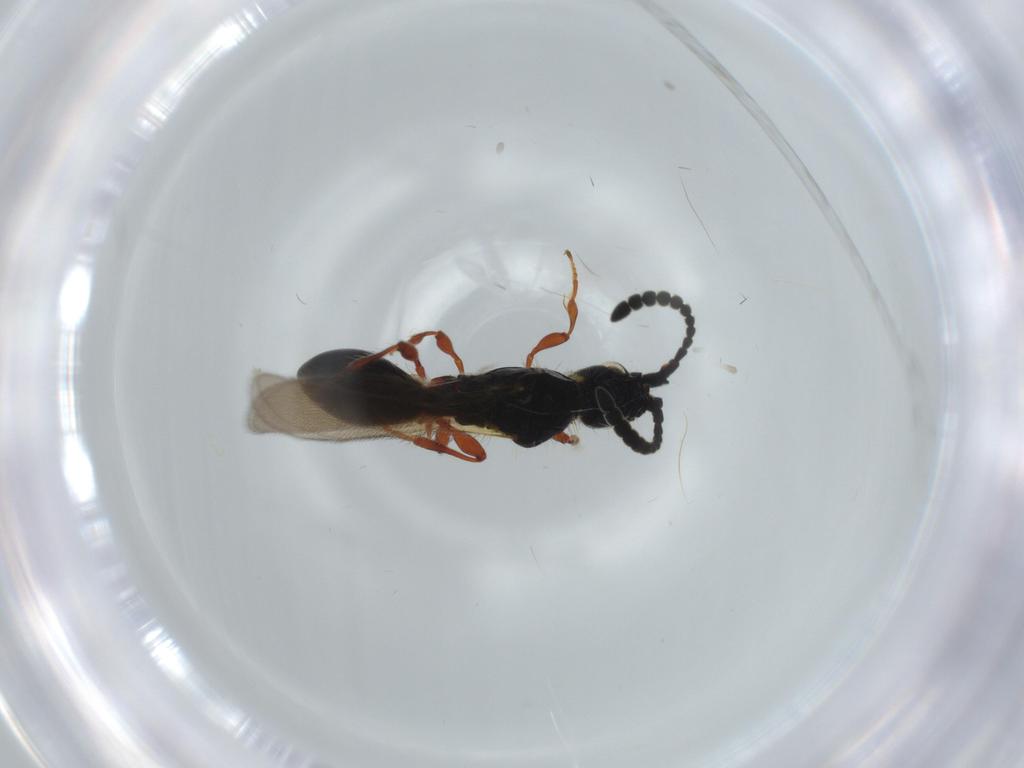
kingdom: Animalia
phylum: Arthropoda
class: Insecta
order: Hymenoptera
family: Diapriidae
